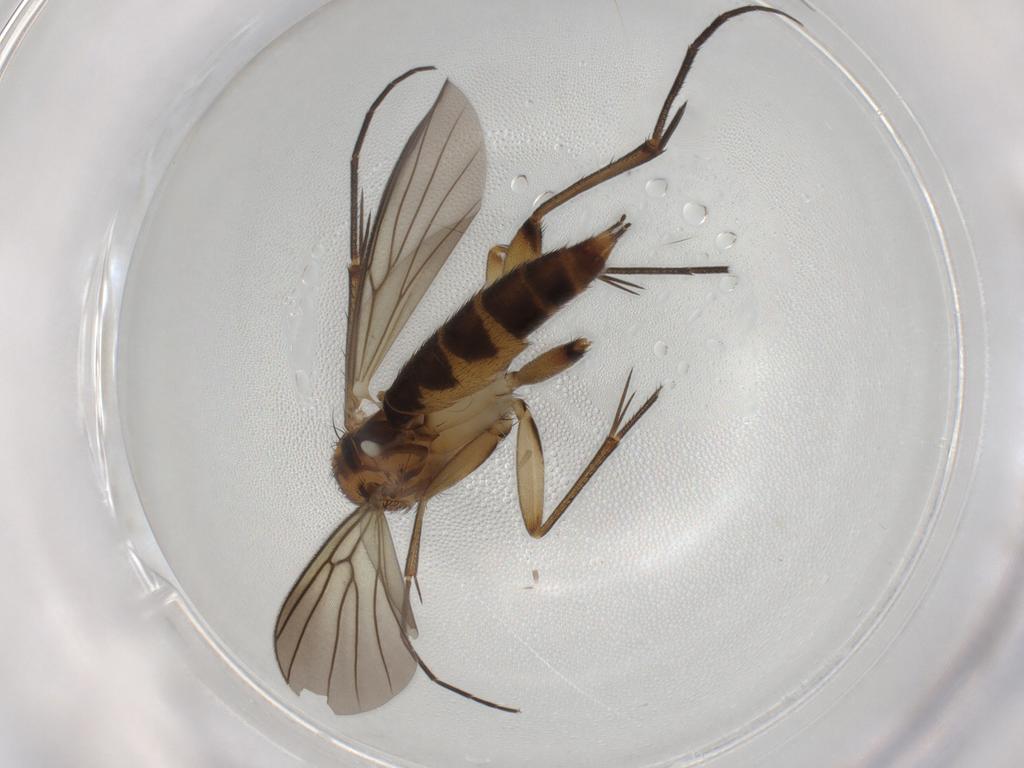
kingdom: Animalia
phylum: Arthropoda
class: Insecta
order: Diptera
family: Mycetophilidae
